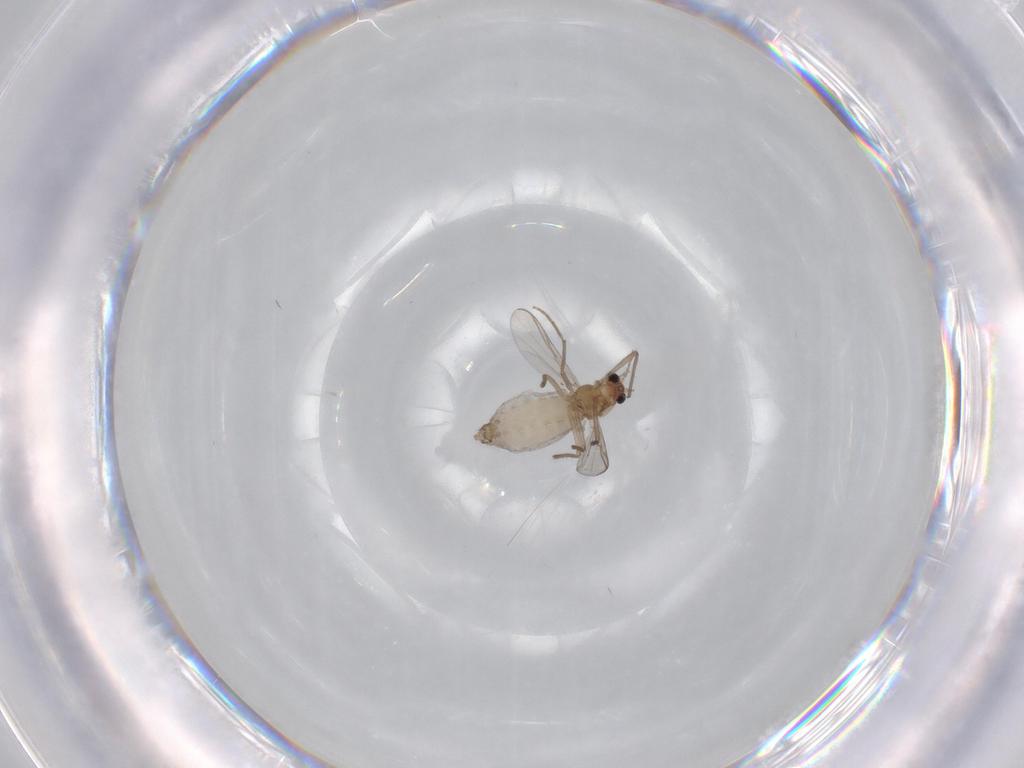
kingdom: Animalia
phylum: Arthropoda
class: Insecta
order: Diptera
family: Chironomidae
